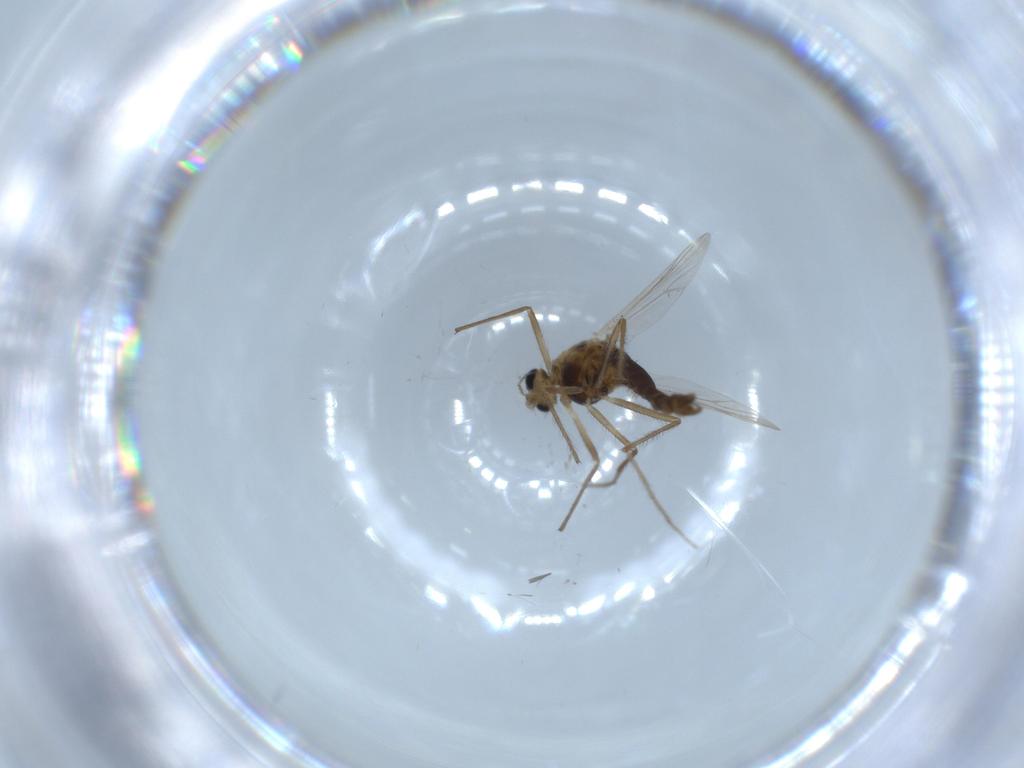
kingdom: Animalia
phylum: Arthropoda
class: Insecta
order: Diptera
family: Chironomidae
